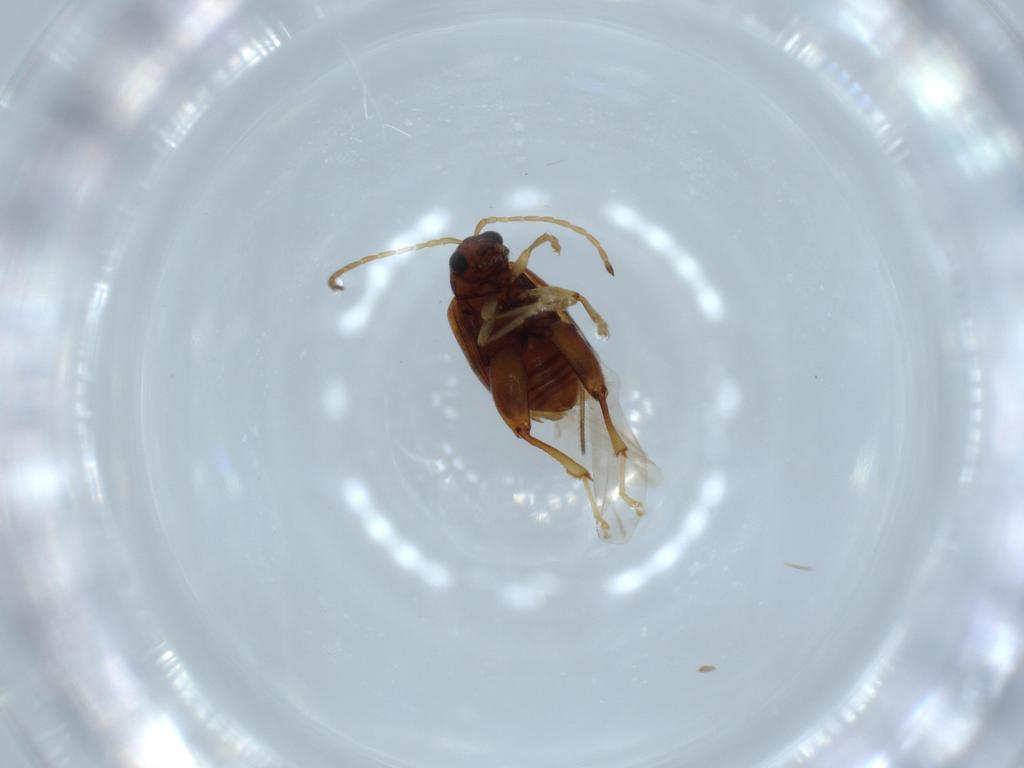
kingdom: Animalia
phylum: Arthropoda
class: Insecta
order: Coleoptera
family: Chrysomelidae
